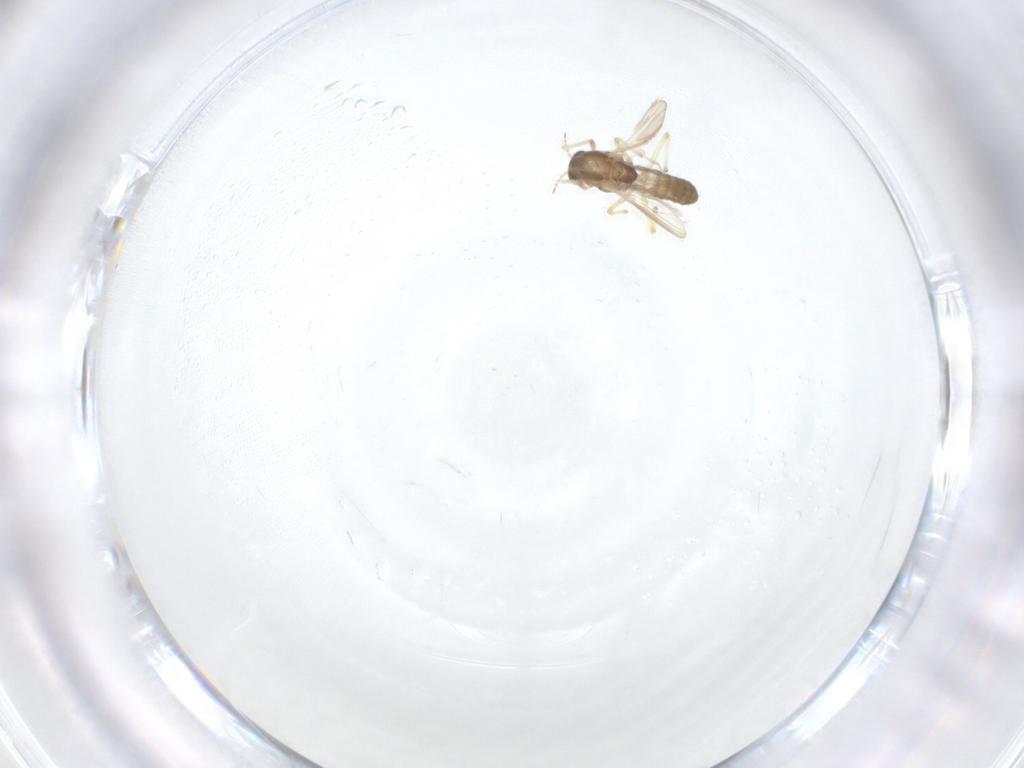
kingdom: Animalia
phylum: Arthropoda
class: Insecta
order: Diptera
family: Chironomidae
